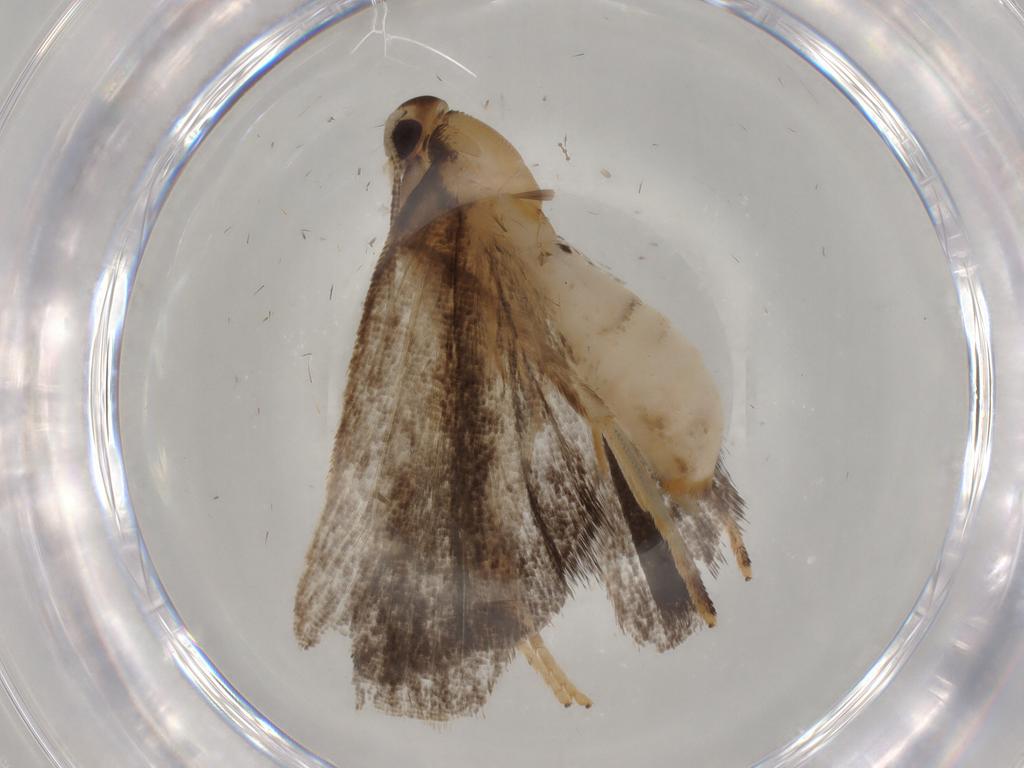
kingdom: Animalia
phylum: Arthropoda
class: Insecta
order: Lepidoptera
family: Gelechiidae
